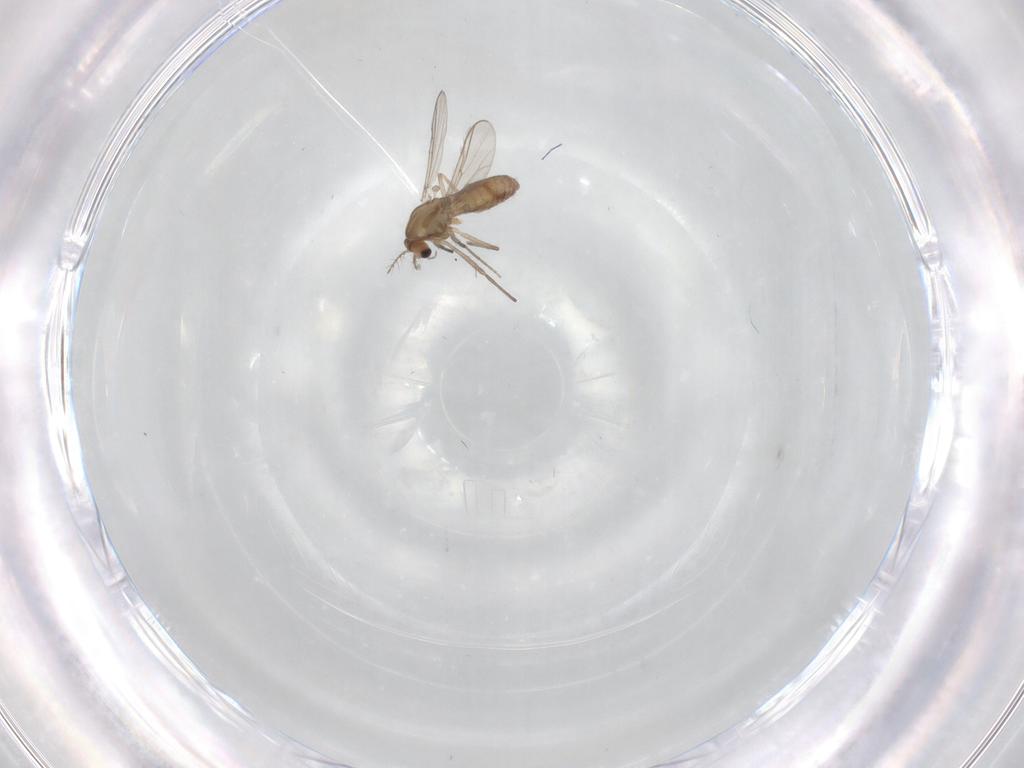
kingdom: Animalia
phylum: Arthropoda
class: Insecta
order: Diptera
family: Chironomidae
